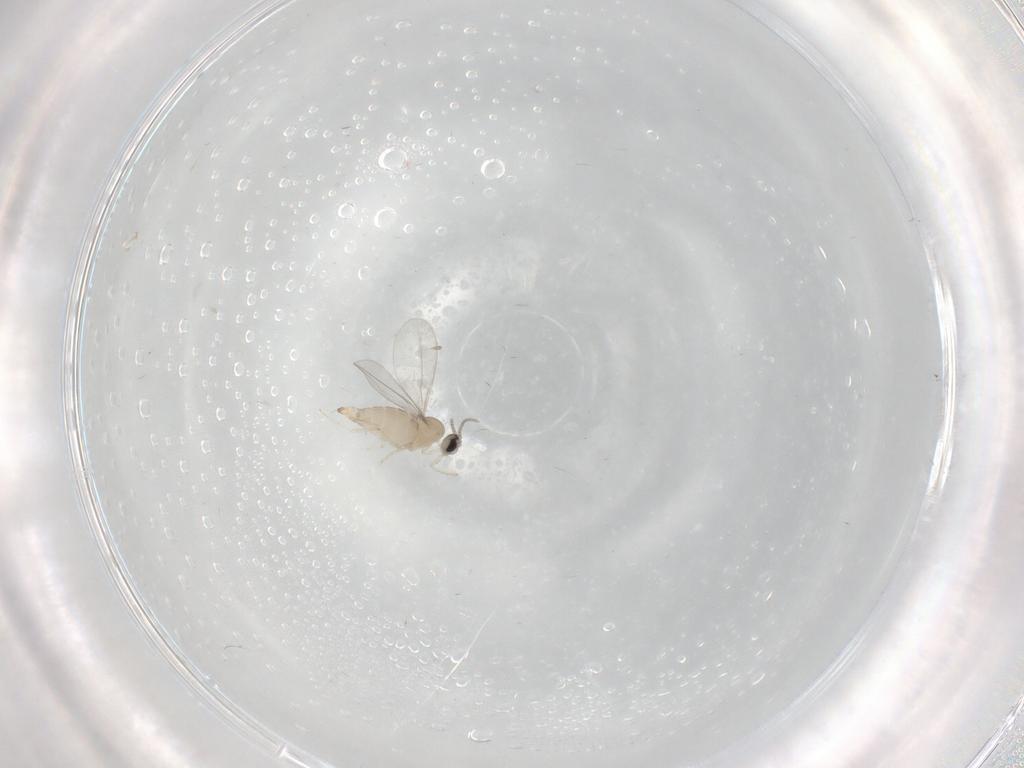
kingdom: Animalia
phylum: Arthropoda
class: Insecta
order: Diptera
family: Cecidomyiidae
